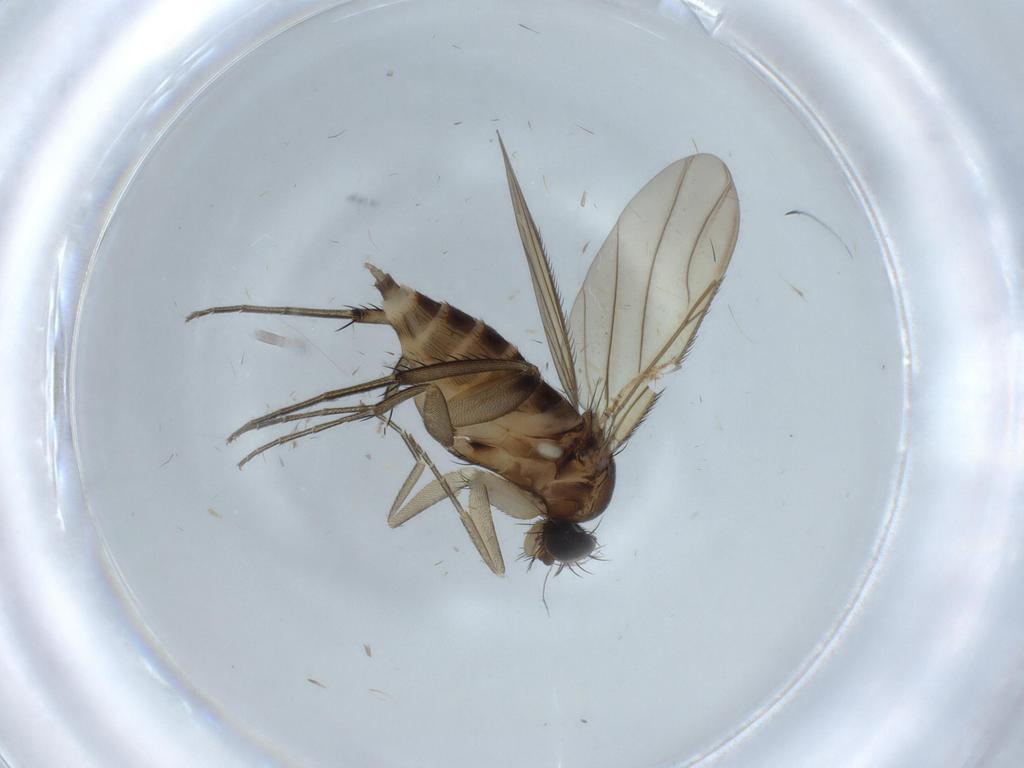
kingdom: Animalia
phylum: Arthropoda
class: Insecta
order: Diptera
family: Phoridae
